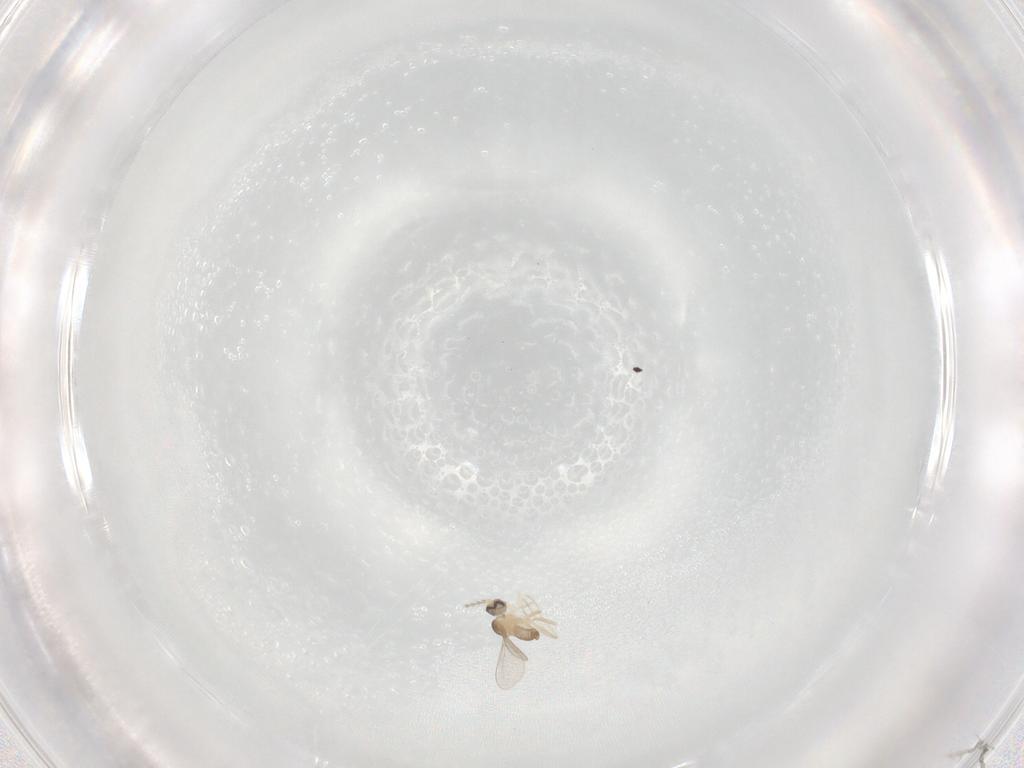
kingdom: Animalia
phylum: Arthropoda
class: Insecta
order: Diptera
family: Cecidomyiidae
